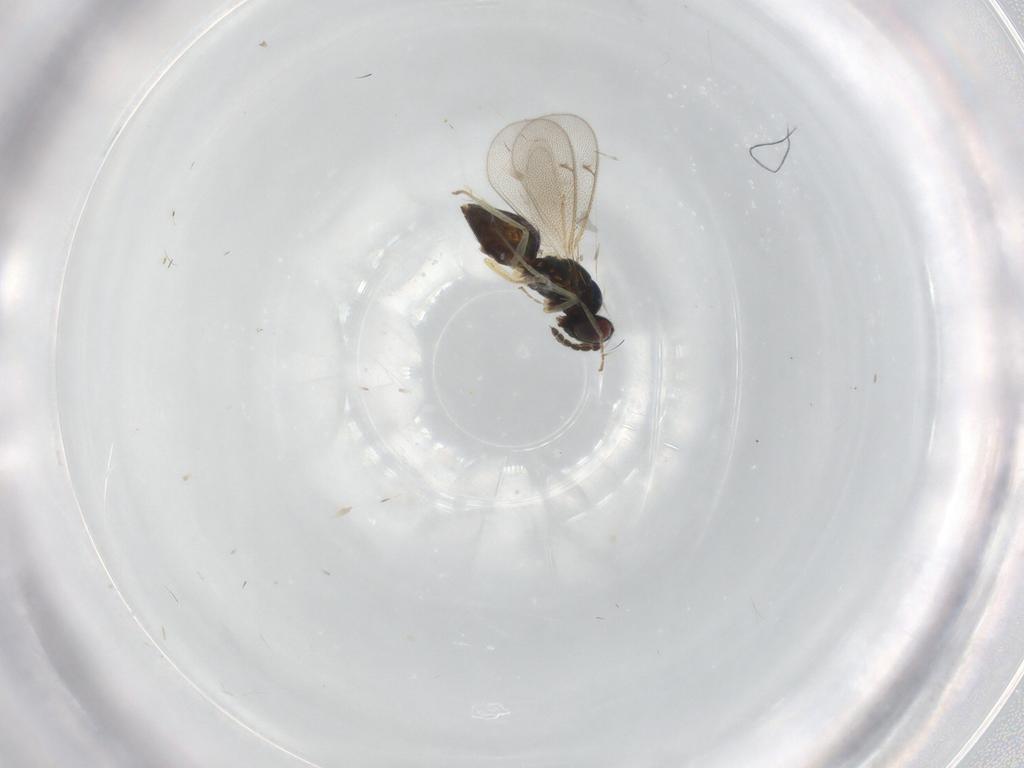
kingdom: Animalia
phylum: Arthropoda
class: Insecta
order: Hymenoptera
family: Eulophidae
